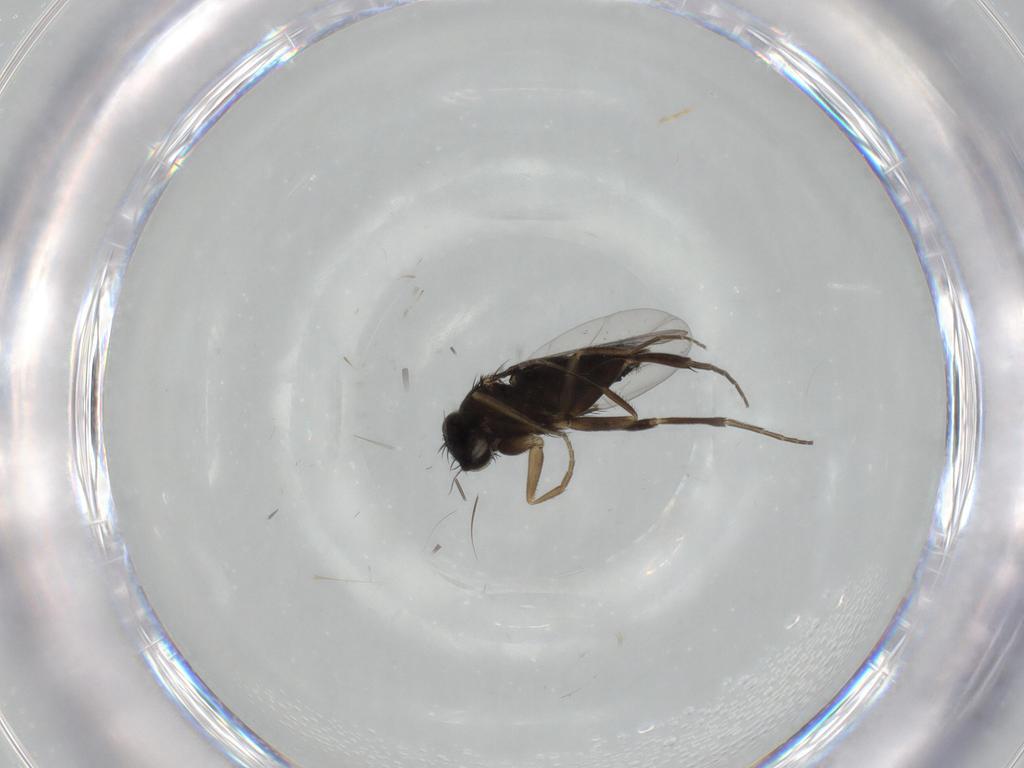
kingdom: Animalia
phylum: Arthropoda
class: Insecta
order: Diptera
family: Phoridae
